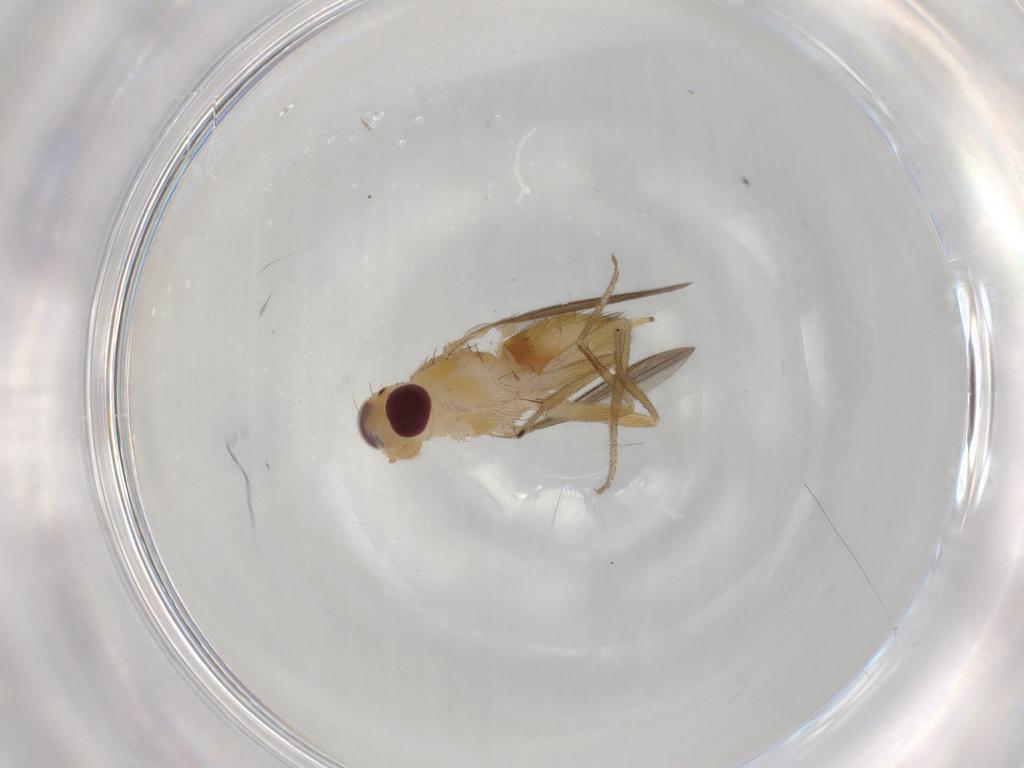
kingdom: Animalia
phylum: Arthropoda
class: Insecta
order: Diptera
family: Clusiidae
